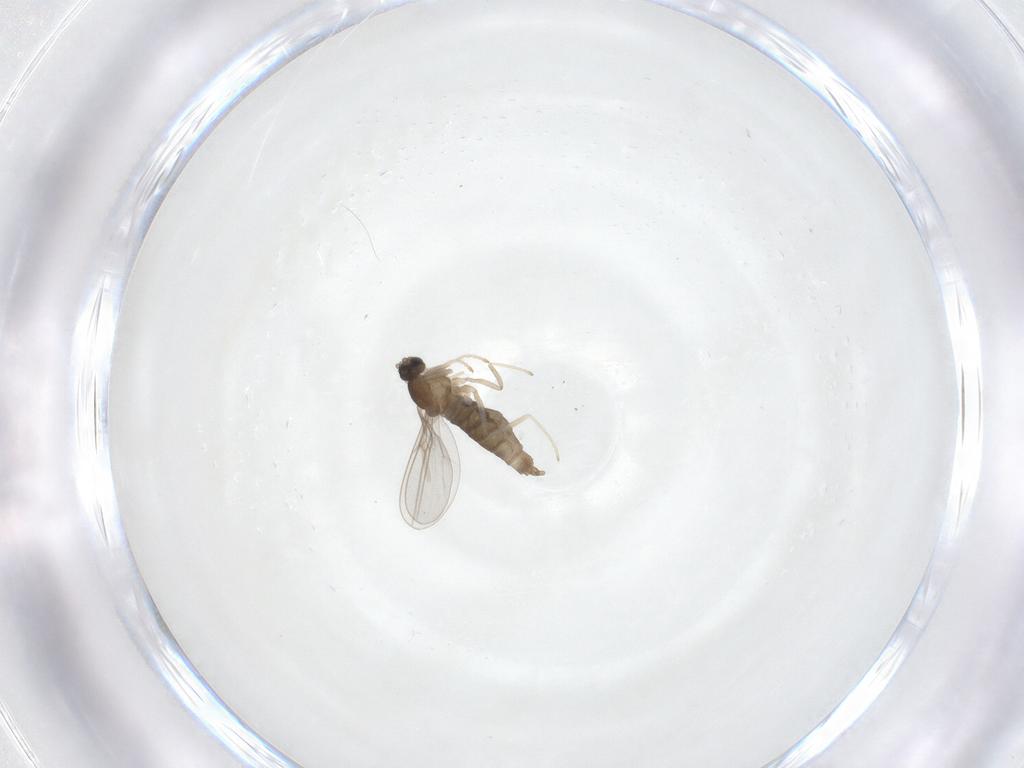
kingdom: Animalia
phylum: Arthropoda
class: Insecta
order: Diptera
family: Cecidomyiidae
